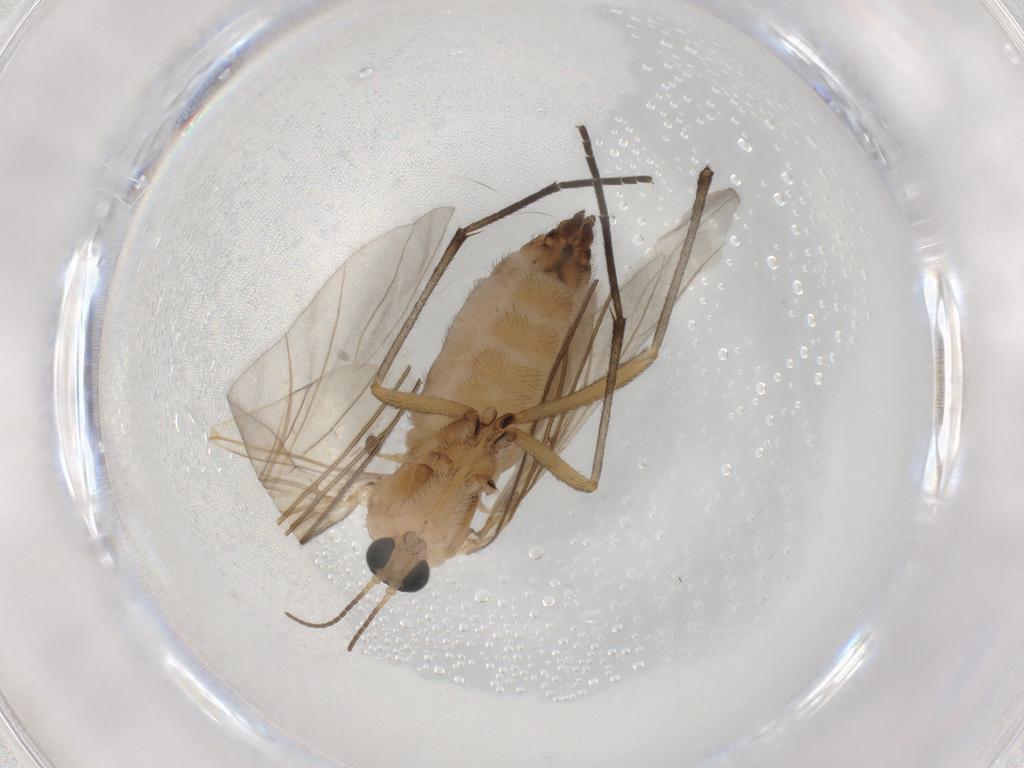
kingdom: Animalia
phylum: Arthropoda
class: Insecta
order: Diptera
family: Sciaridae
